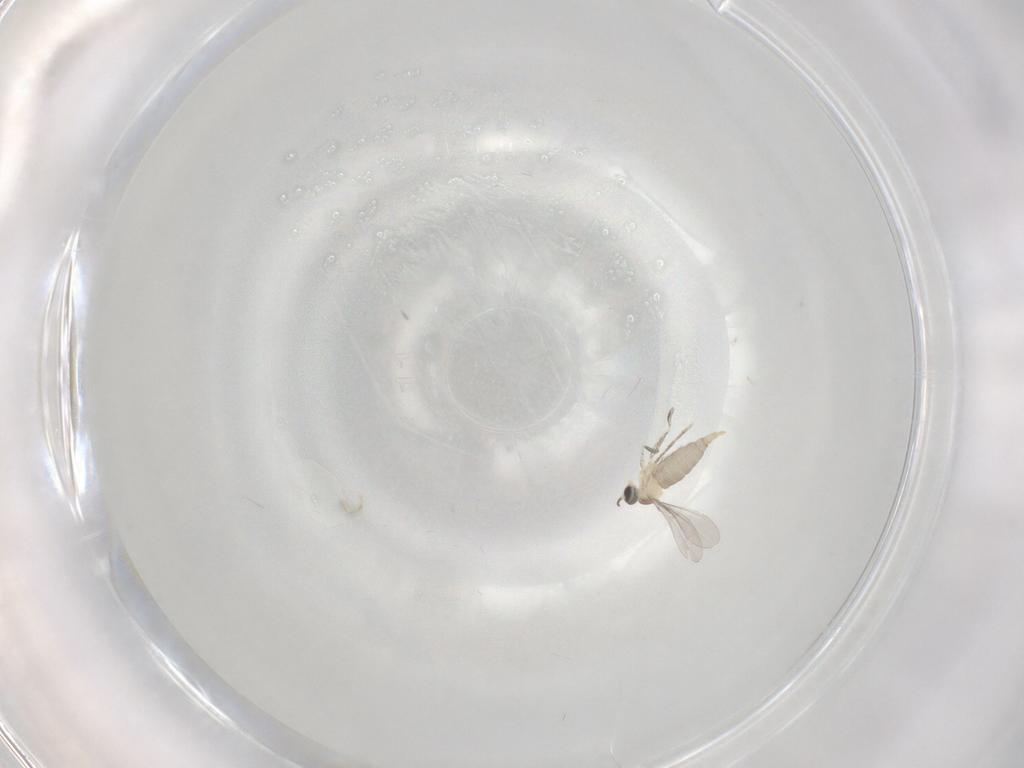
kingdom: Animalia
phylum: Arthropoda
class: Insecta
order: Diptera
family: Cecidomyiidae
